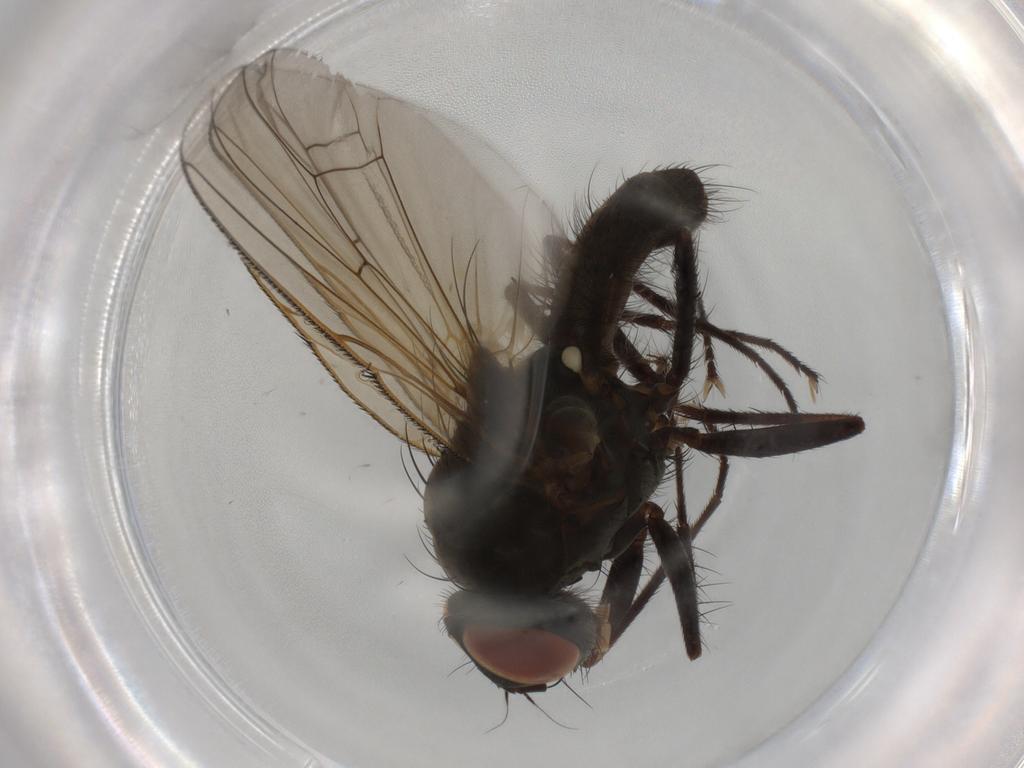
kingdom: Animalia
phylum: Arthropoda
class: Insecta
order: Diptera
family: Anthomyiidae
